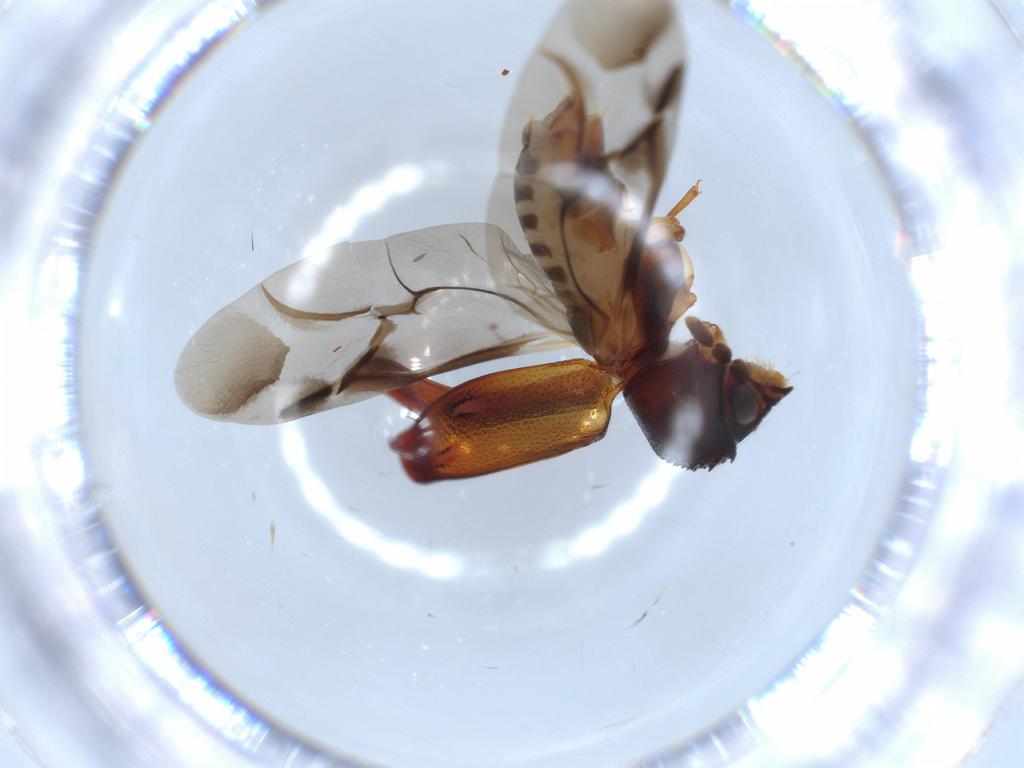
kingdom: Animalia
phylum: Arthropoda
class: Insecta
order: Coleoptera
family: Bostrichidae
